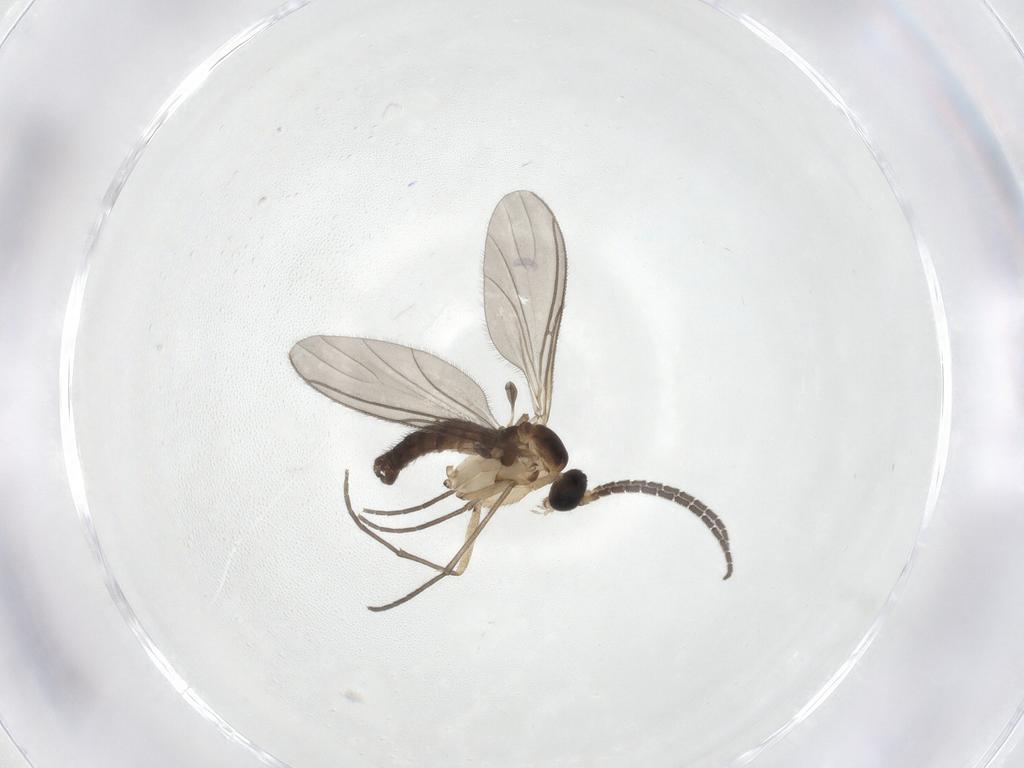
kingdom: Animalia
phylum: Arthropoda
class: Insecta
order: Diptera
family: Sciaridae
